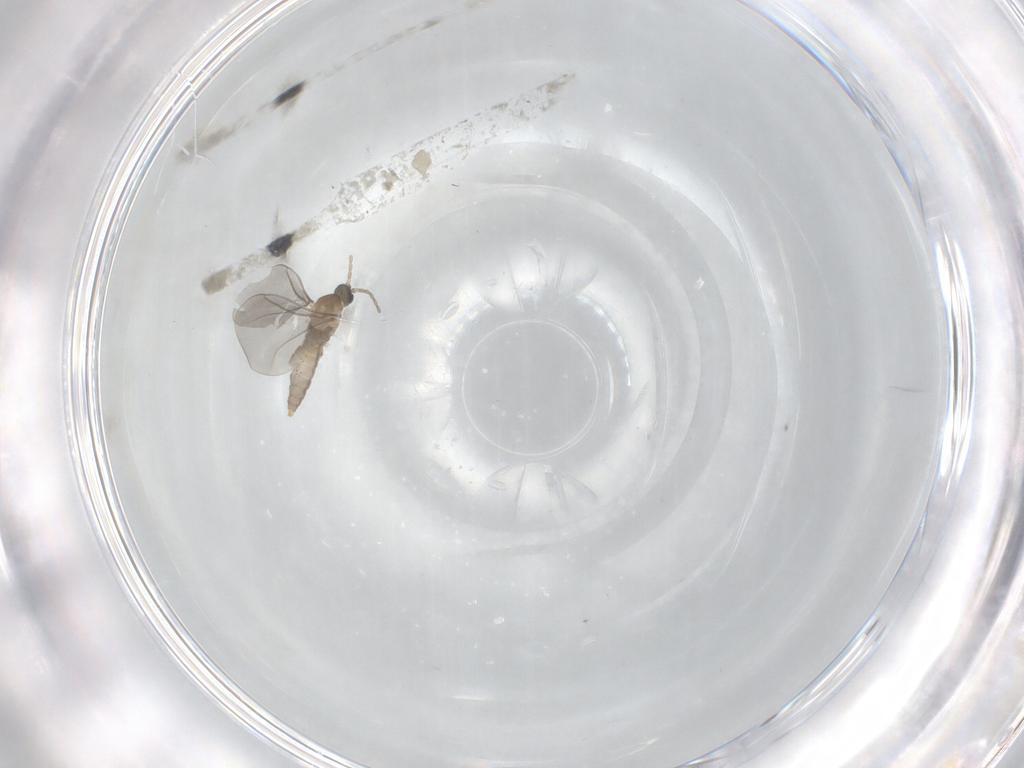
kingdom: Animalia
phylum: Arthropoda
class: Insecta
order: Diptera
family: Cecidomyiidae
